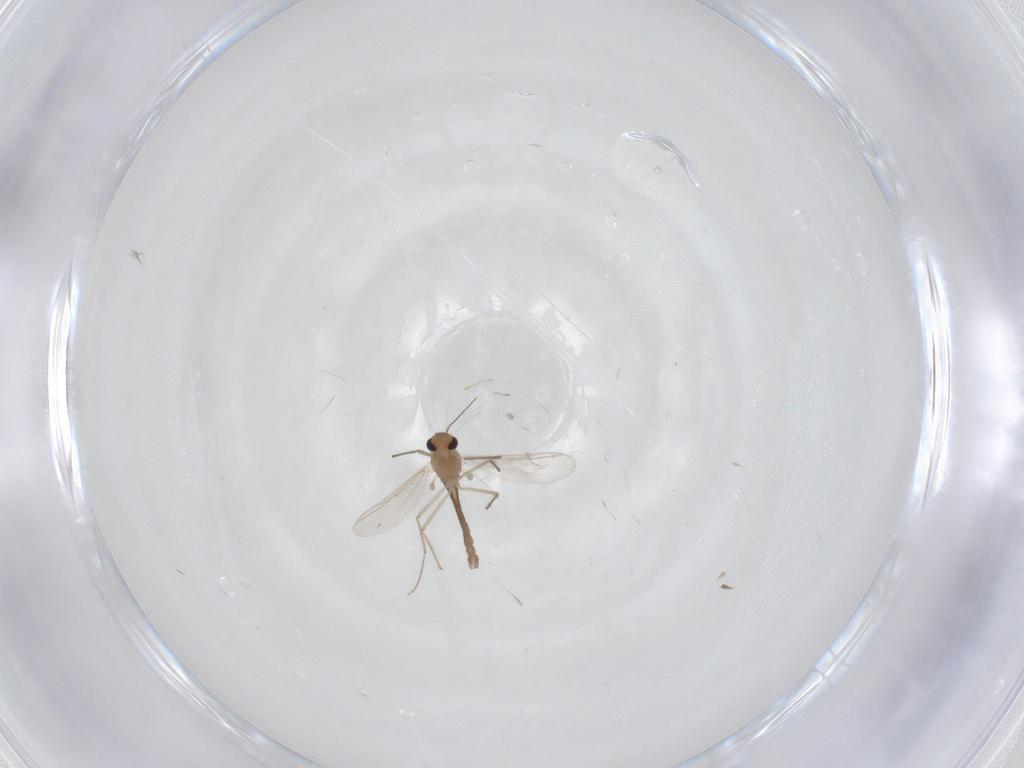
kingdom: Animalia
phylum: Arthropoda
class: Insecta
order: Diptera
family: Chironomidae
